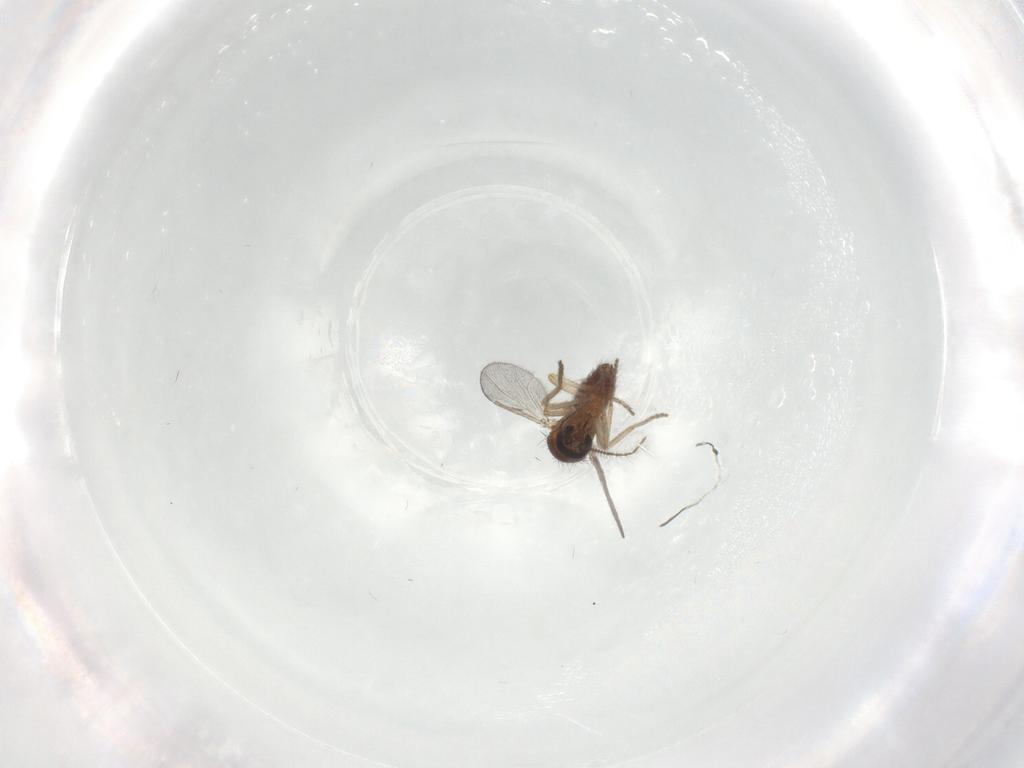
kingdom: Animalia
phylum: Arthropoda
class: Insecta
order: Diptera
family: Ceratopogonidae
